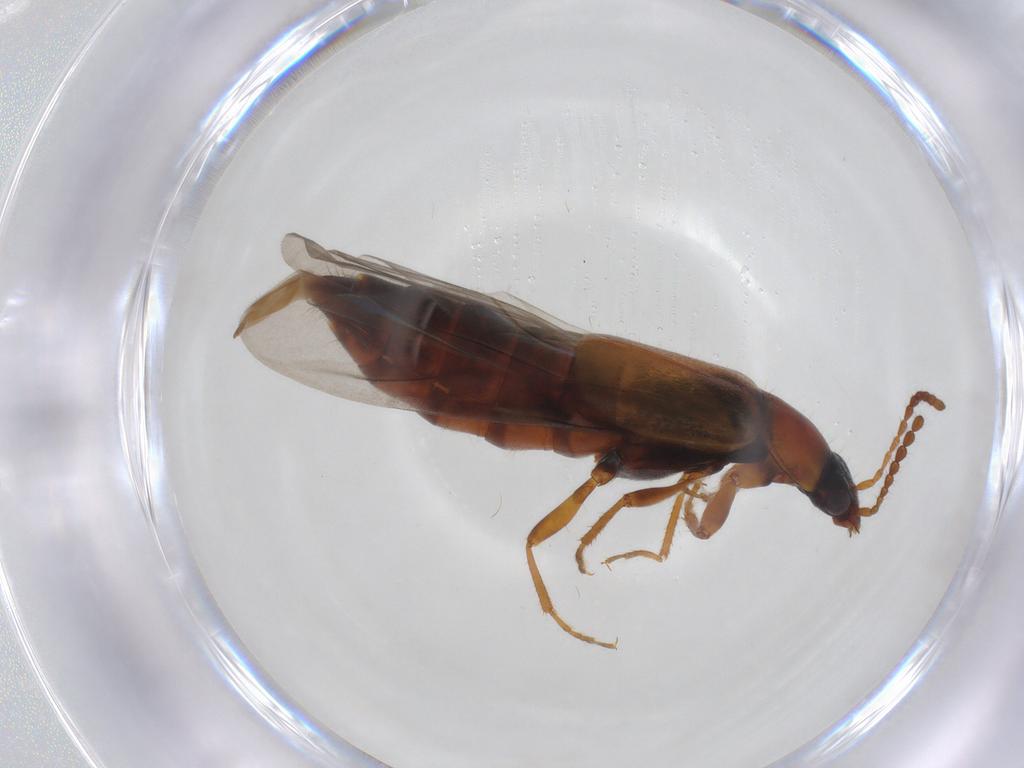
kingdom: Animalia
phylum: Arthropoda
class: Insecta
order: Coleoptera
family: Staphylinidae
